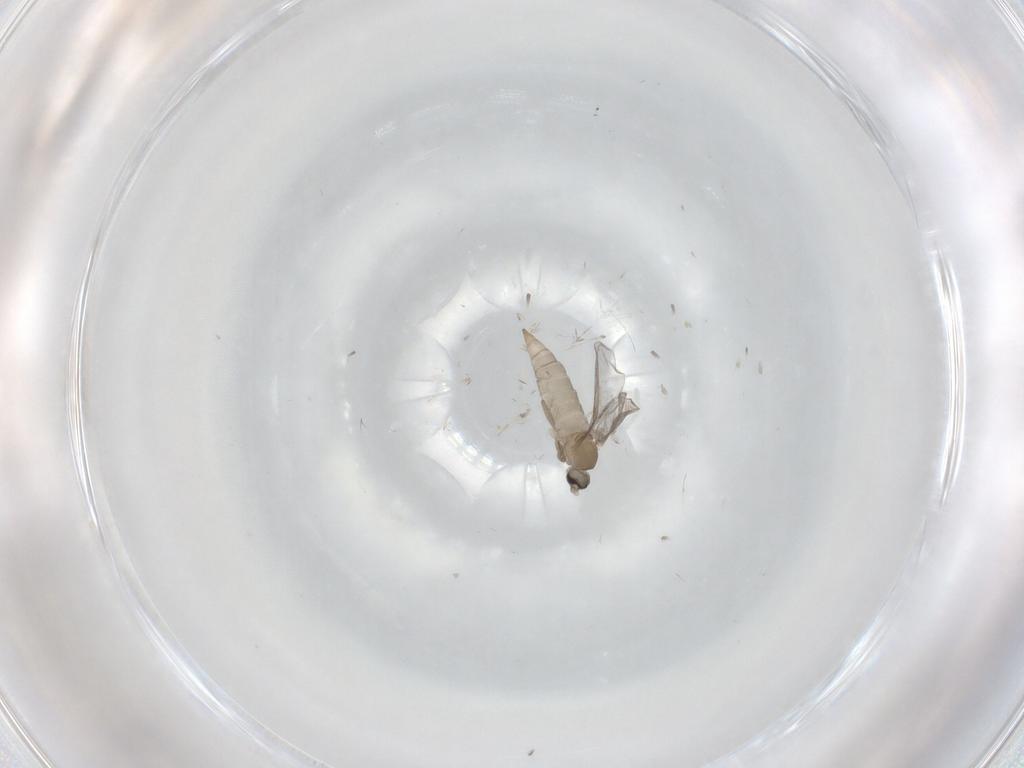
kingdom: Animalia
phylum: Arthropoda
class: Insecta
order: Diptera
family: Cecidomyiidae
